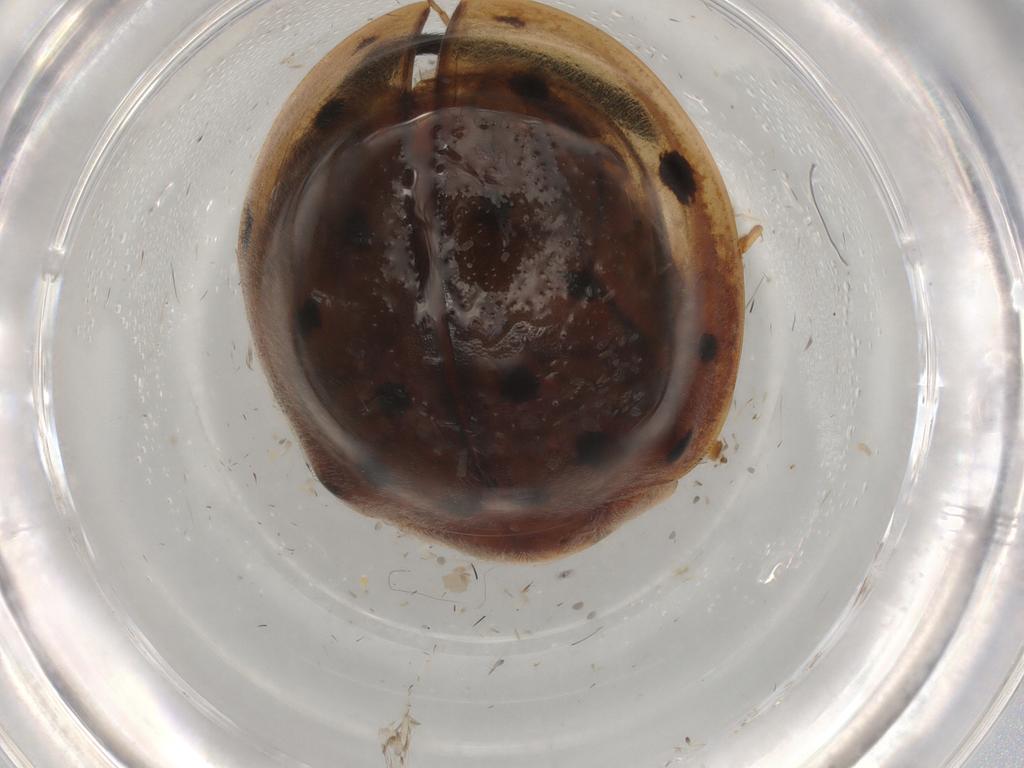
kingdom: Animalia
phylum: Arthropoda
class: Insecta
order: Coleoptera
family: Coccinellidae
